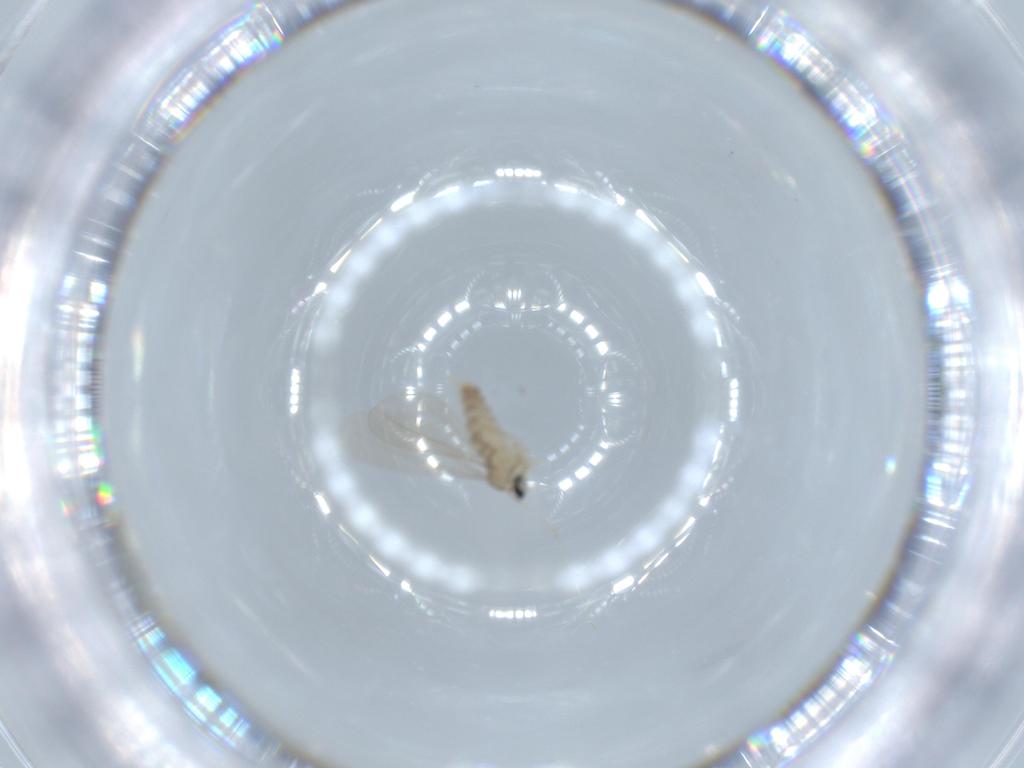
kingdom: Animalia
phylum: Arthropoda
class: Insecta
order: Diptera
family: Cecidomyiidae
